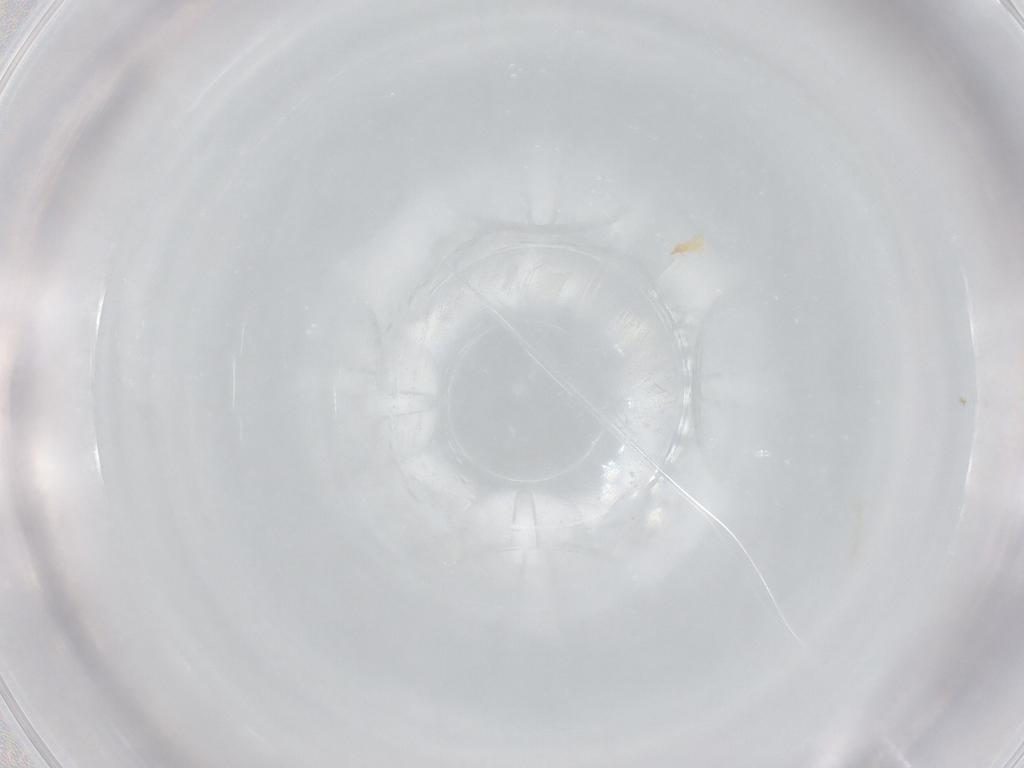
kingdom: Animalia
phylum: Arthropoda
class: Arachnida
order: Trombidiformes
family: Cunaxidae
